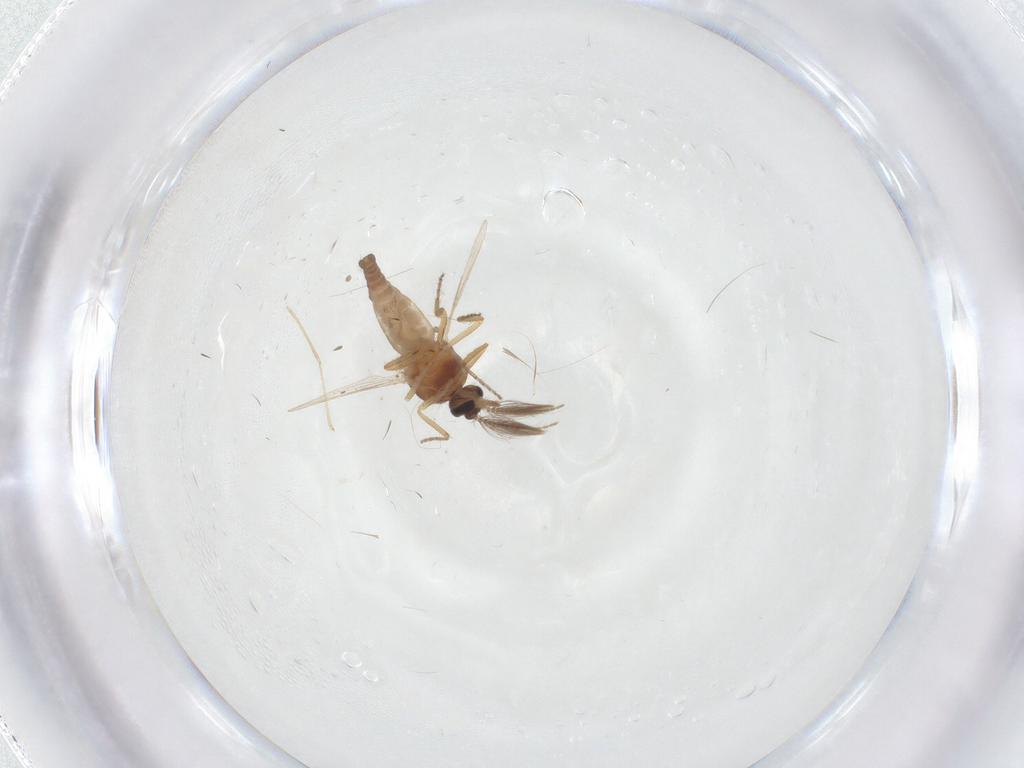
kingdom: Animalia
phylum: Arthropoda
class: Insecta
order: Diptera
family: Ceratopogonidae
